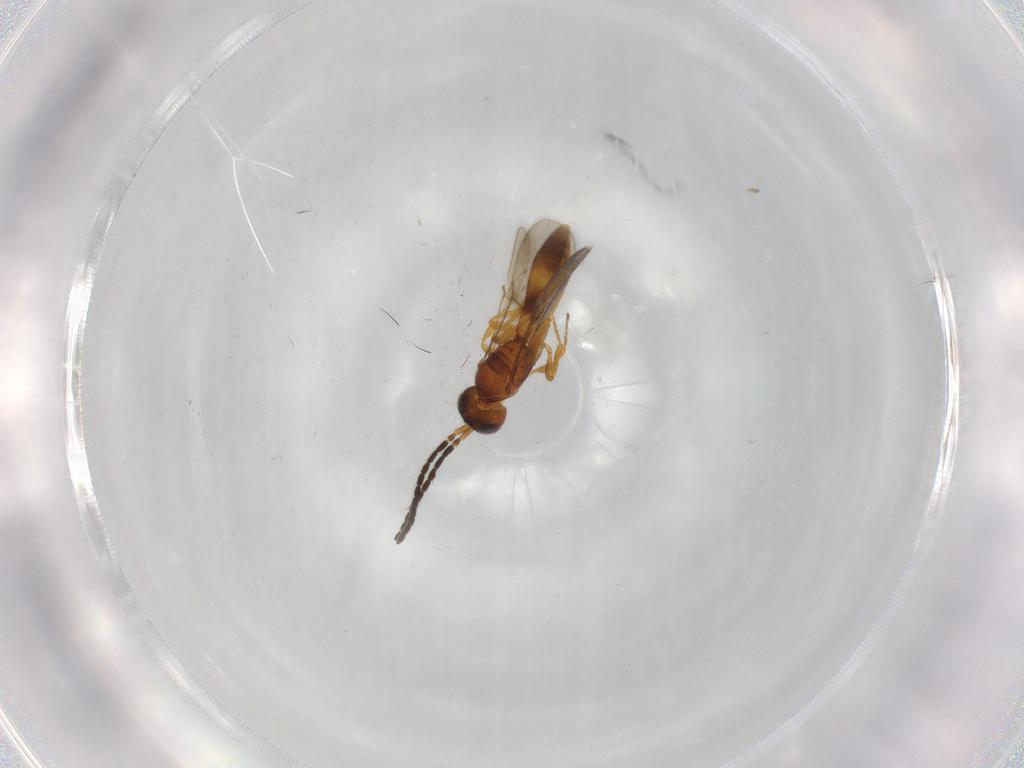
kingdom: Animalia
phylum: Arthropoda
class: Insecta
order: Hymenoptera
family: Scelionidae
